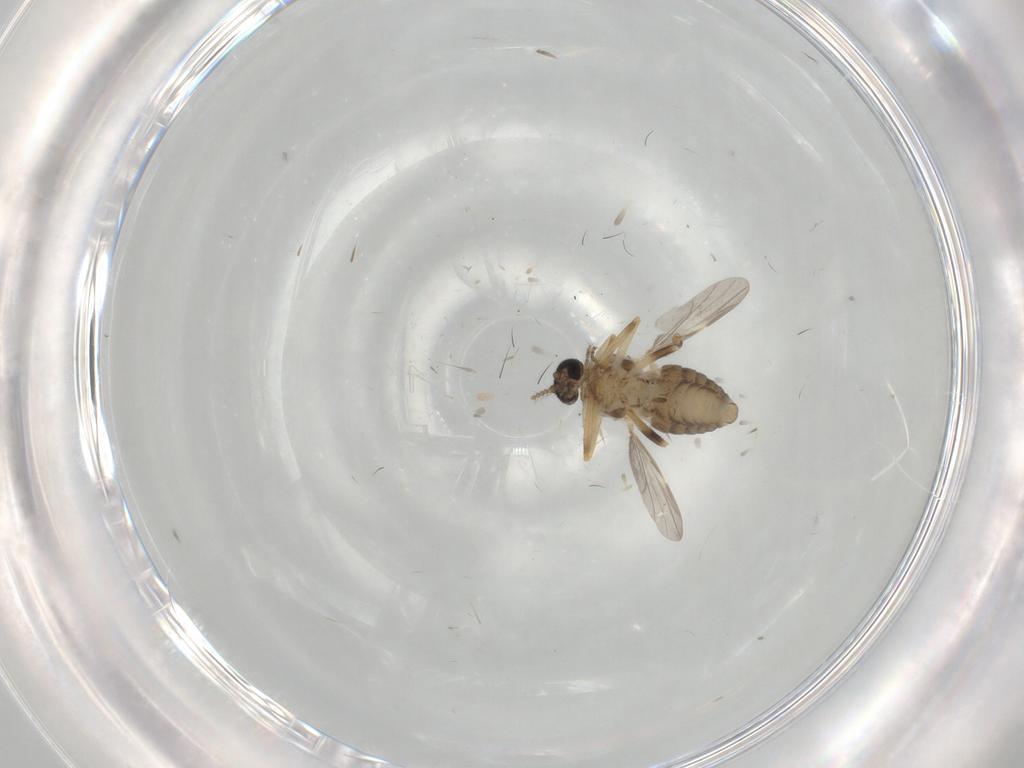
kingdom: Animalia
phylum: Arthropoda
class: Insecta
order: Diptera
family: Ceratopogonidae
